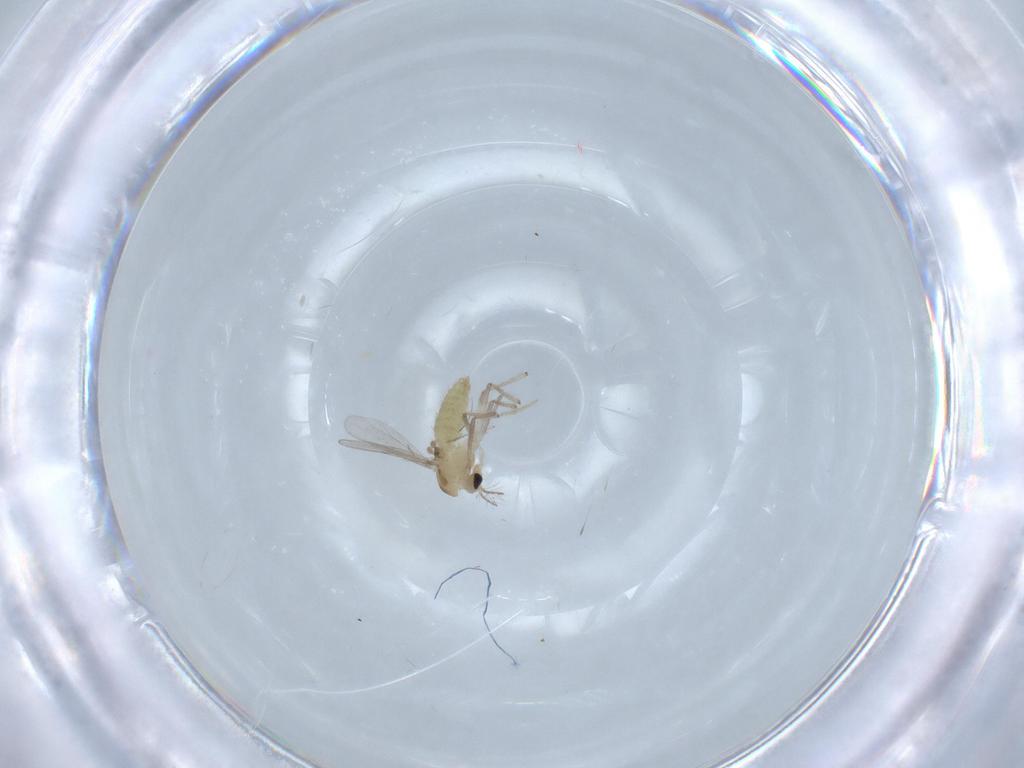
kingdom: Animalia
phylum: Arthropoda
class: Insecta
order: Diptera
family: Chironomidae
